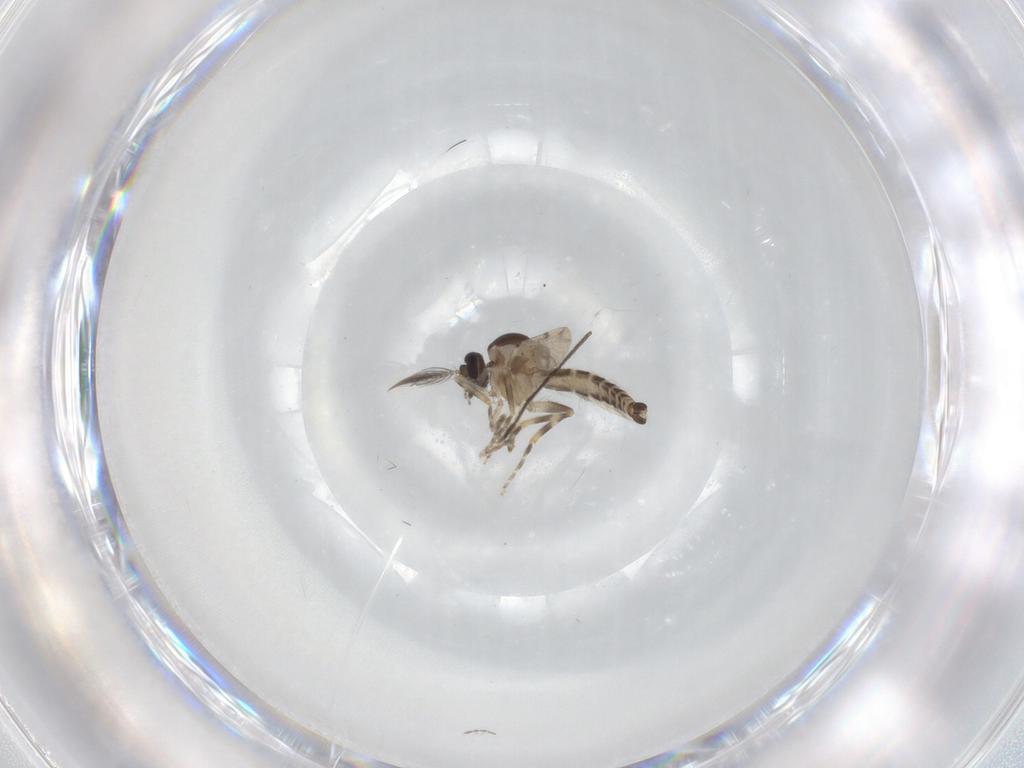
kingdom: Animalia
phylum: Arthropoda
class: Insecta
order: Diptera
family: Ceratopogonidae
